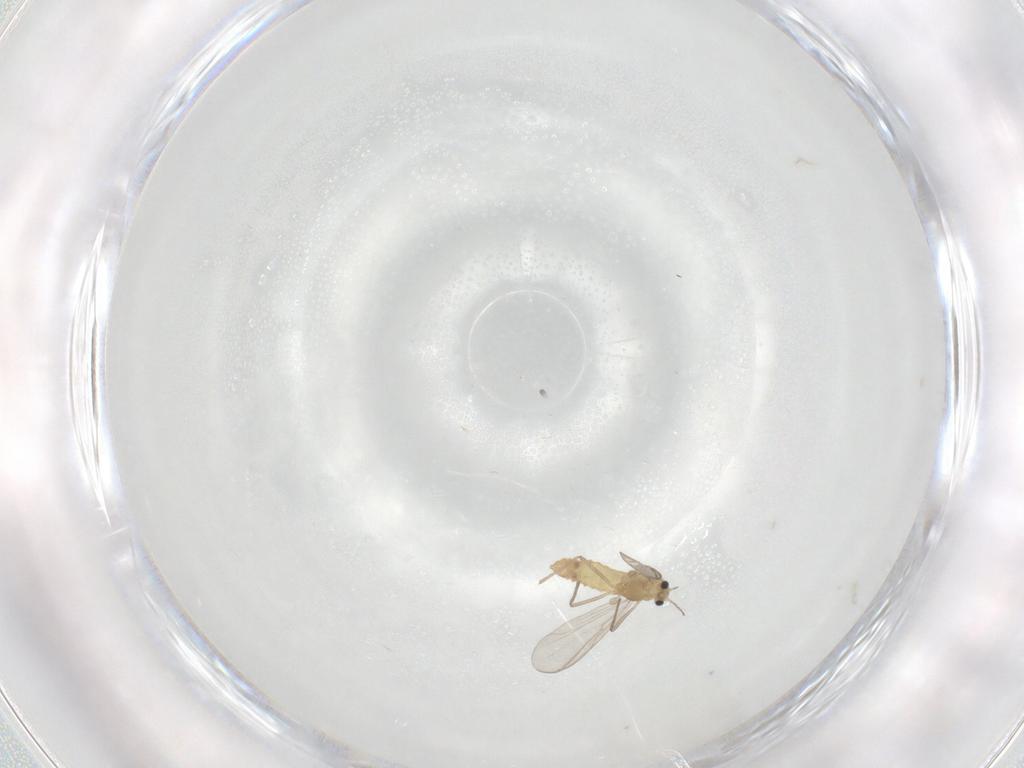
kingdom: Animalia
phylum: Arthropoda
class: Insecta
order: Diptera
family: Chironomidae
